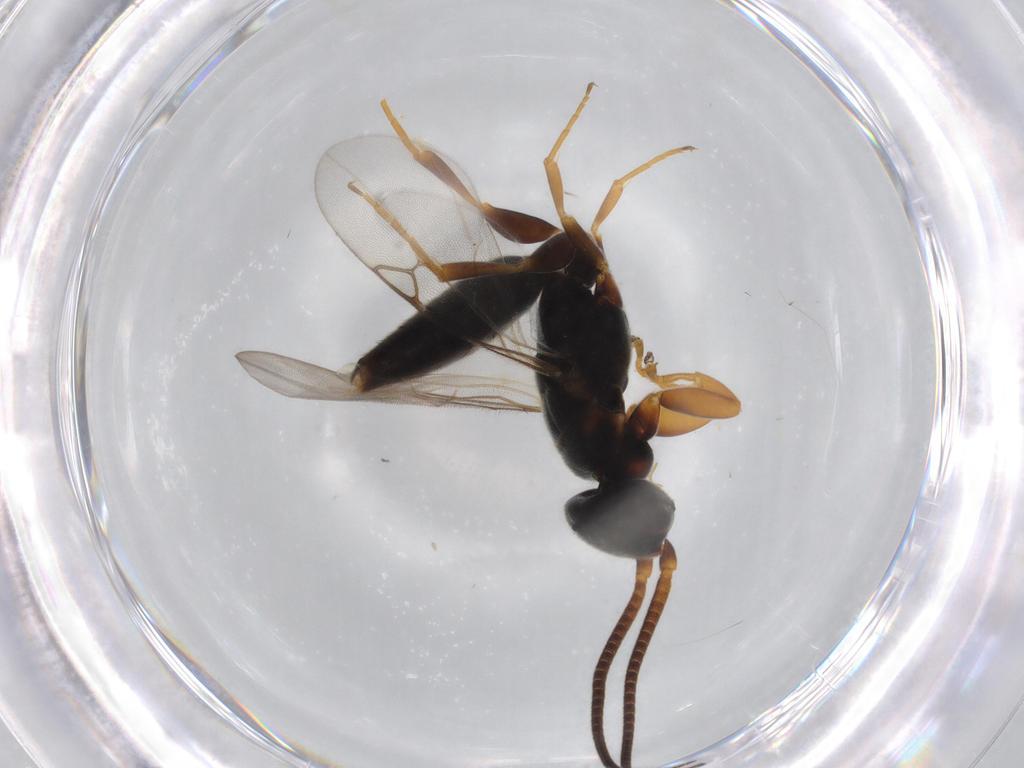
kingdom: Animalia
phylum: Arthropoda
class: Insecta
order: Hymenoptera
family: Sclerogibbidae
